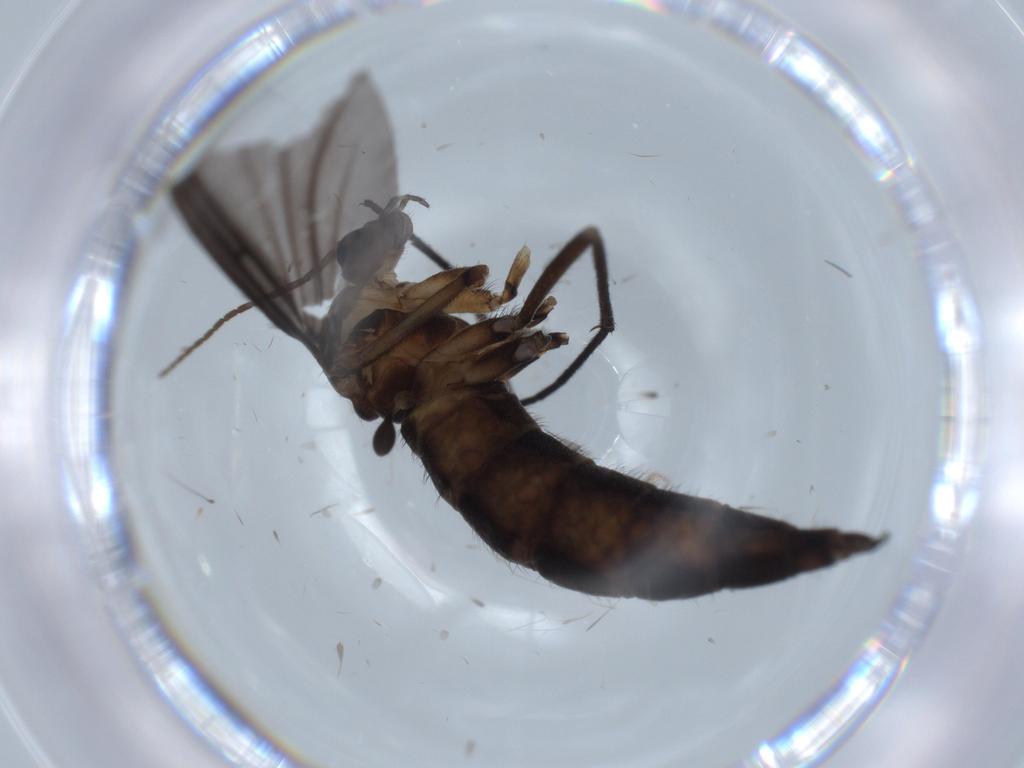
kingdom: Animalia
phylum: Arthropoda
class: Insecta
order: Diptera
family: Sciaridae
